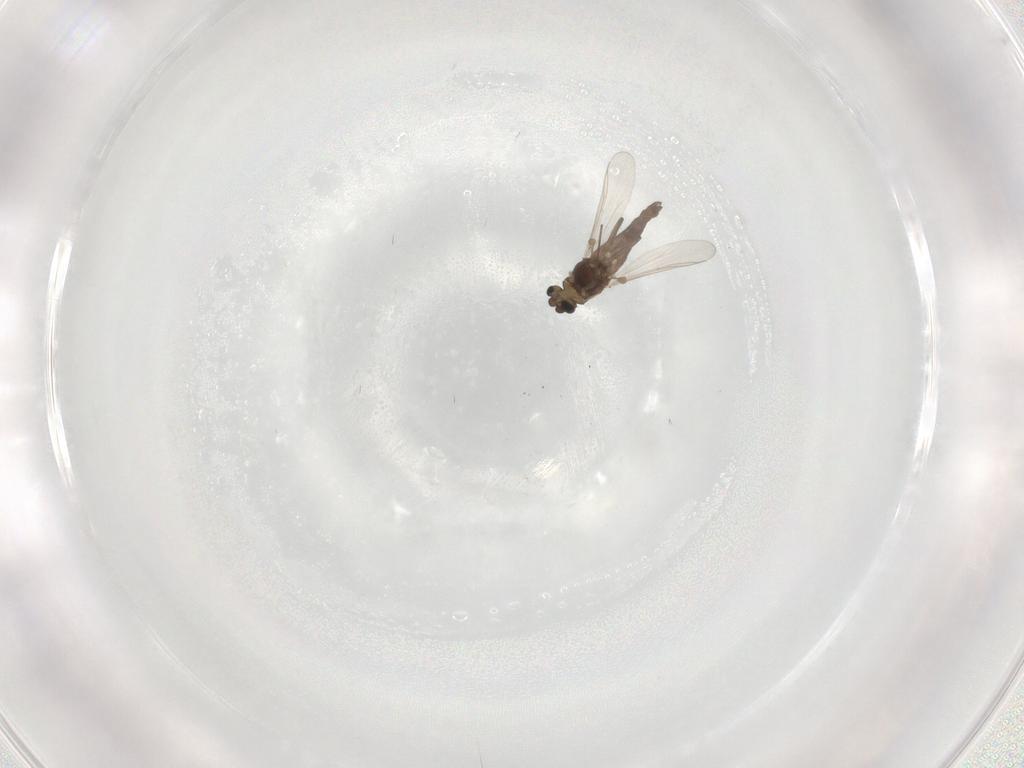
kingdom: Animalia
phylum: Arthropoda
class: Insecta
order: Diptera
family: Chironomidae
